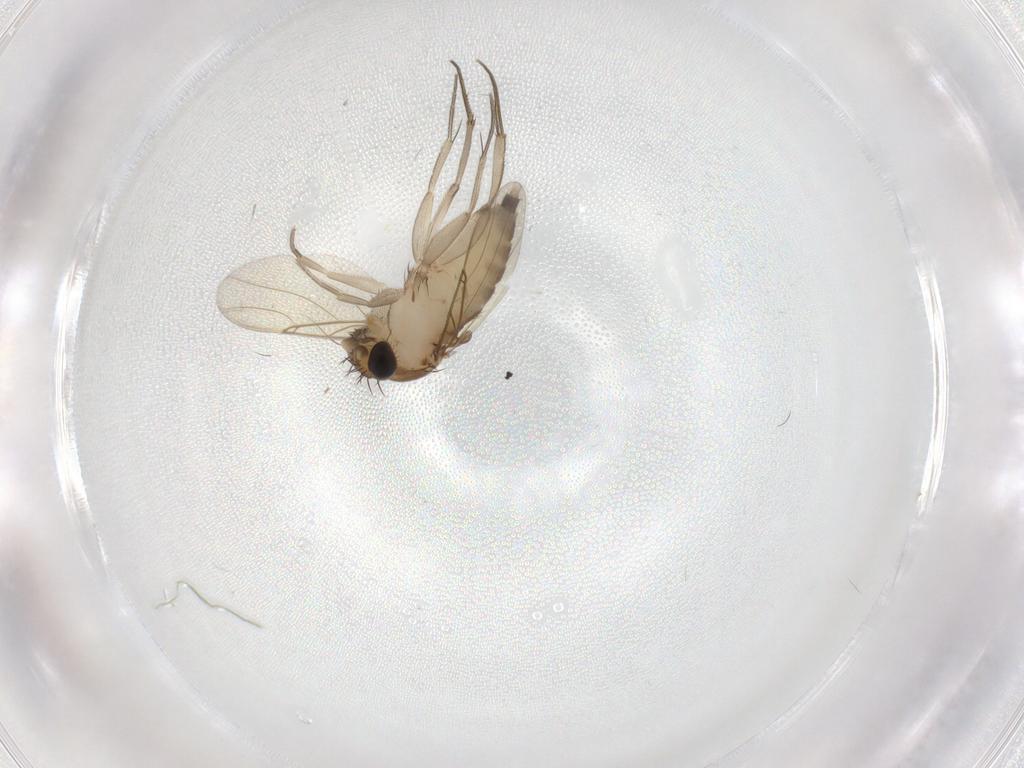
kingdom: Animalia
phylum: Arthropoda
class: Insecta
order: Diptera
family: Phoridae
